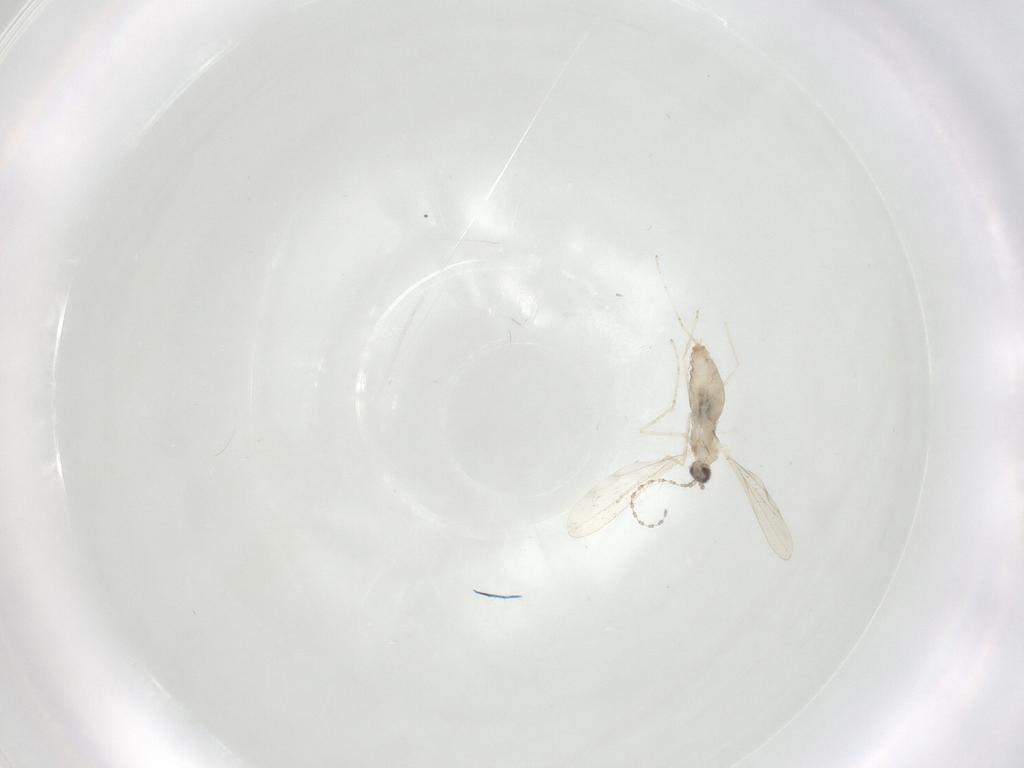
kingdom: Animalia
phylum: Arthropoda
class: Insecta
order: Diptera
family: Cecidomyiidae
